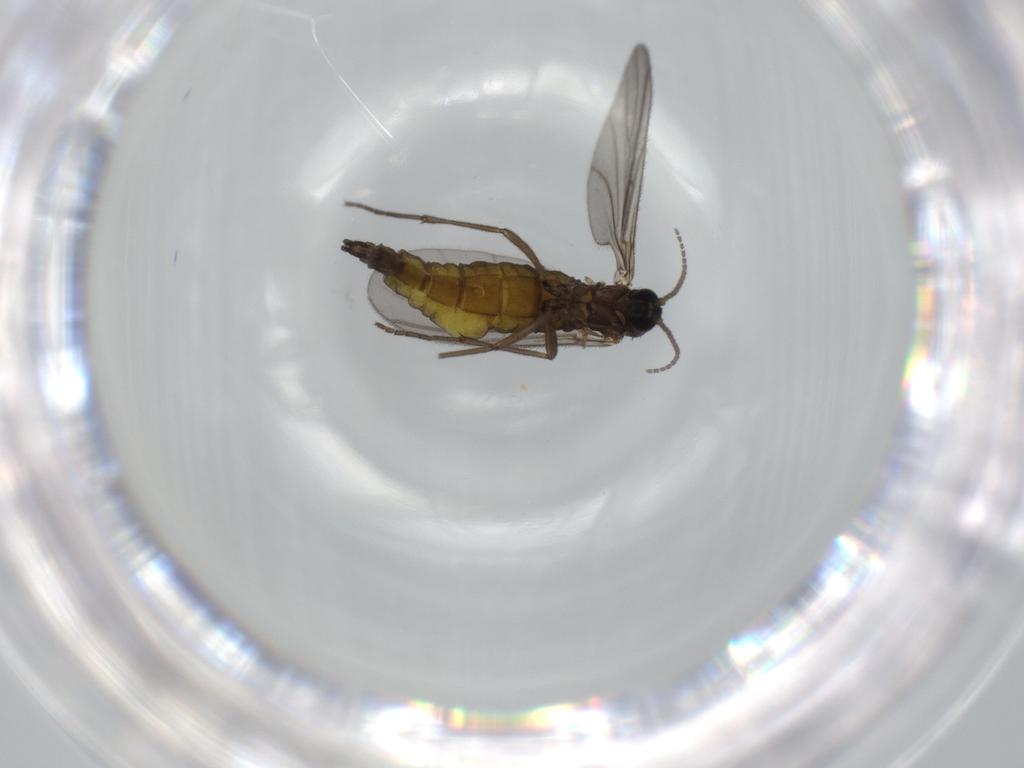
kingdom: Animalia
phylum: Arthropoda
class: Insecta
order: Diptera
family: Sciaridae
